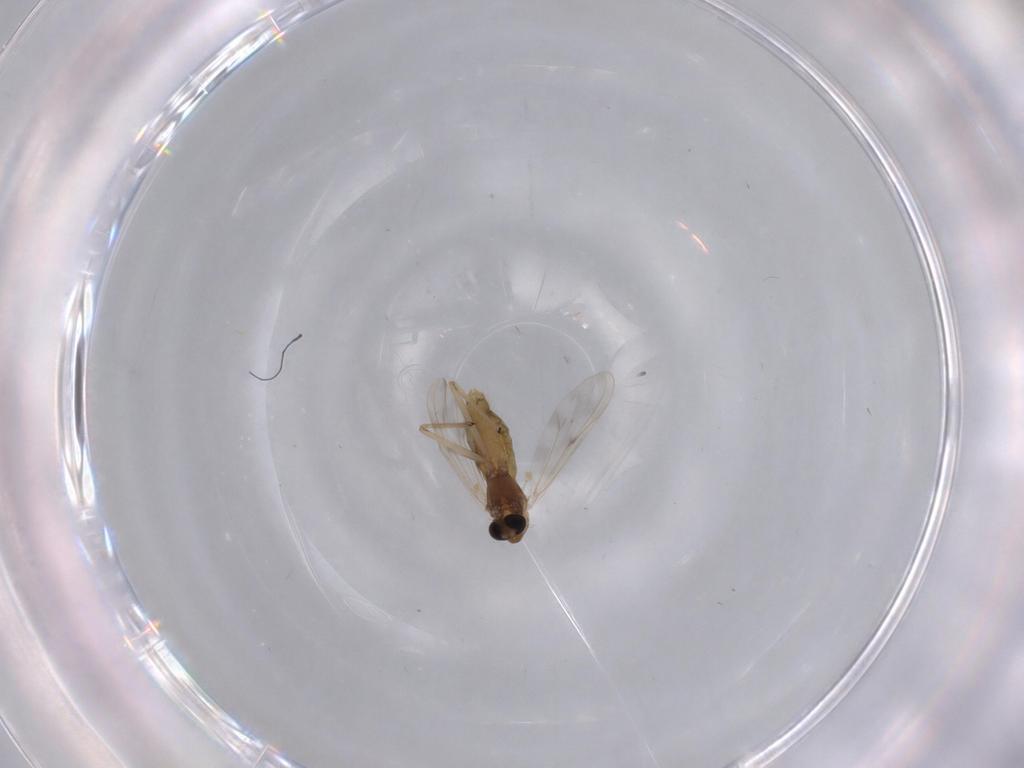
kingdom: Animalia
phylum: Arthropoda
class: Insecta
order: Diptera
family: Chironomidae
